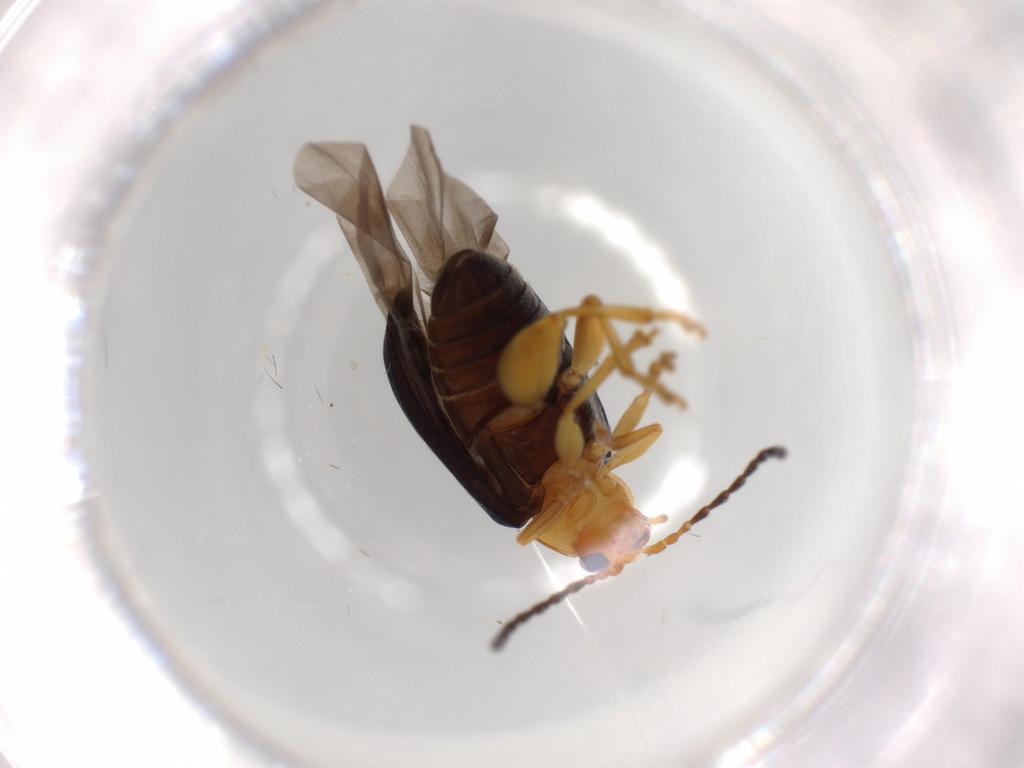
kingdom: Animalia
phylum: Arthropoda
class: Insecta
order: Coleoptera
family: Chrysomelidae
